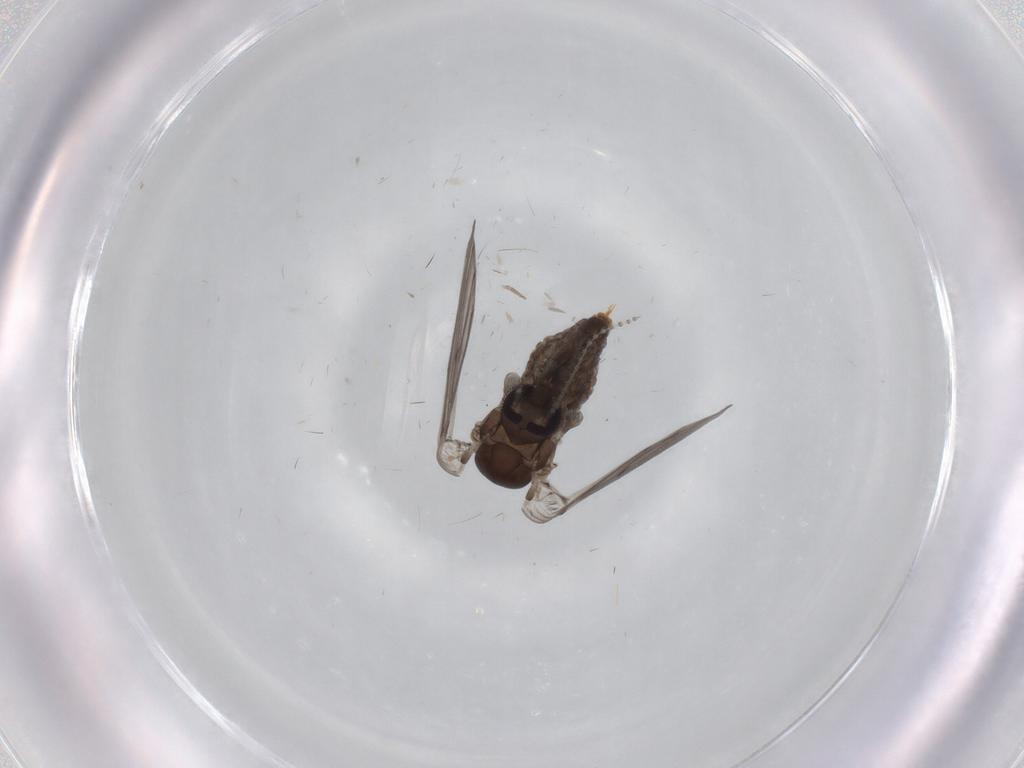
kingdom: Animalia
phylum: Arthropoda
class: Insecta
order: Diptera
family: Psychodidae
